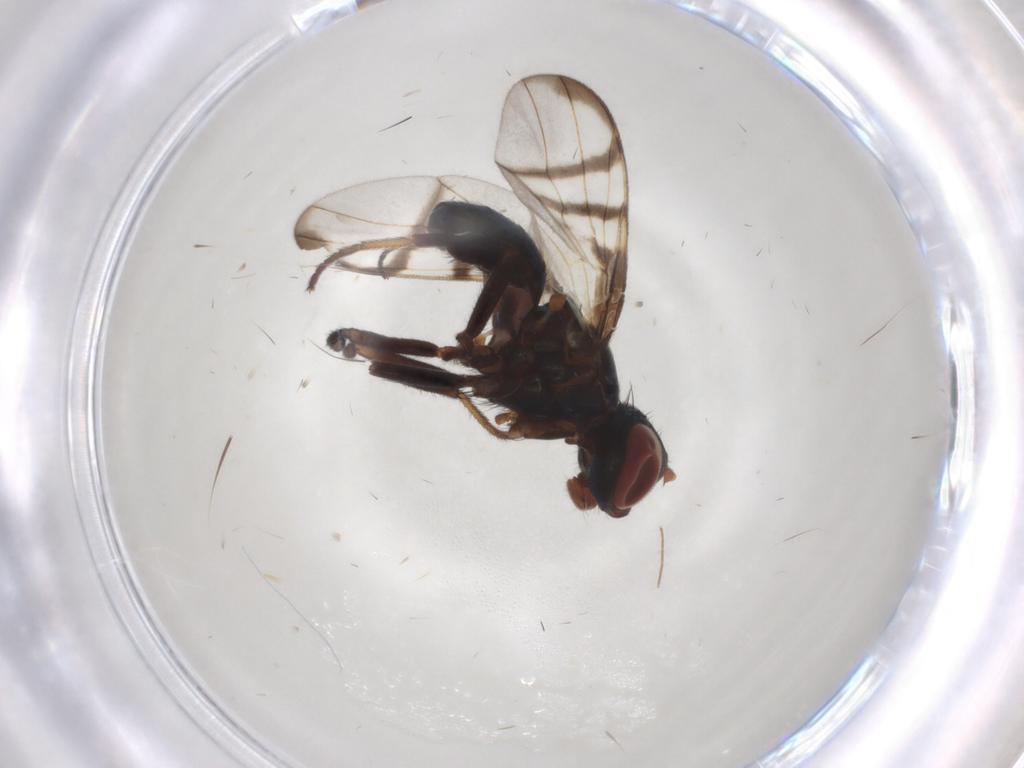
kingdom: Animalia
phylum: Arthropoda
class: Insecta
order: Diptera
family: Agromyzidae
